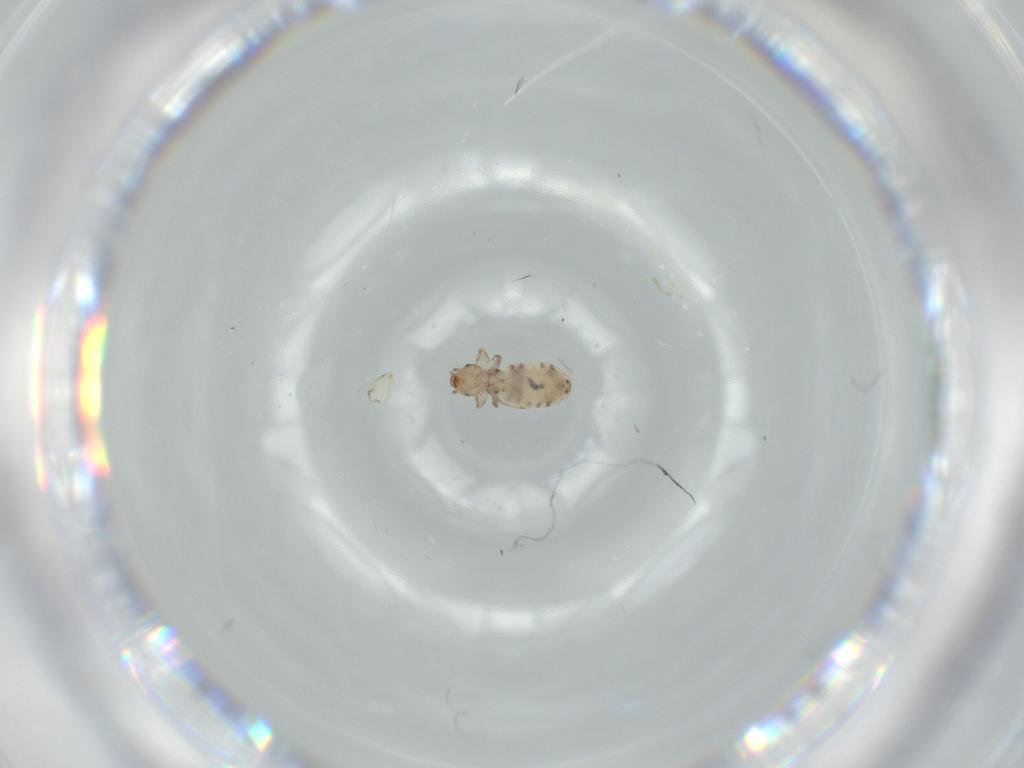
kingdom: Animalia
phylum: Arthropoda
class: Insecta
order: Psocodea
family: Liposcelididae
